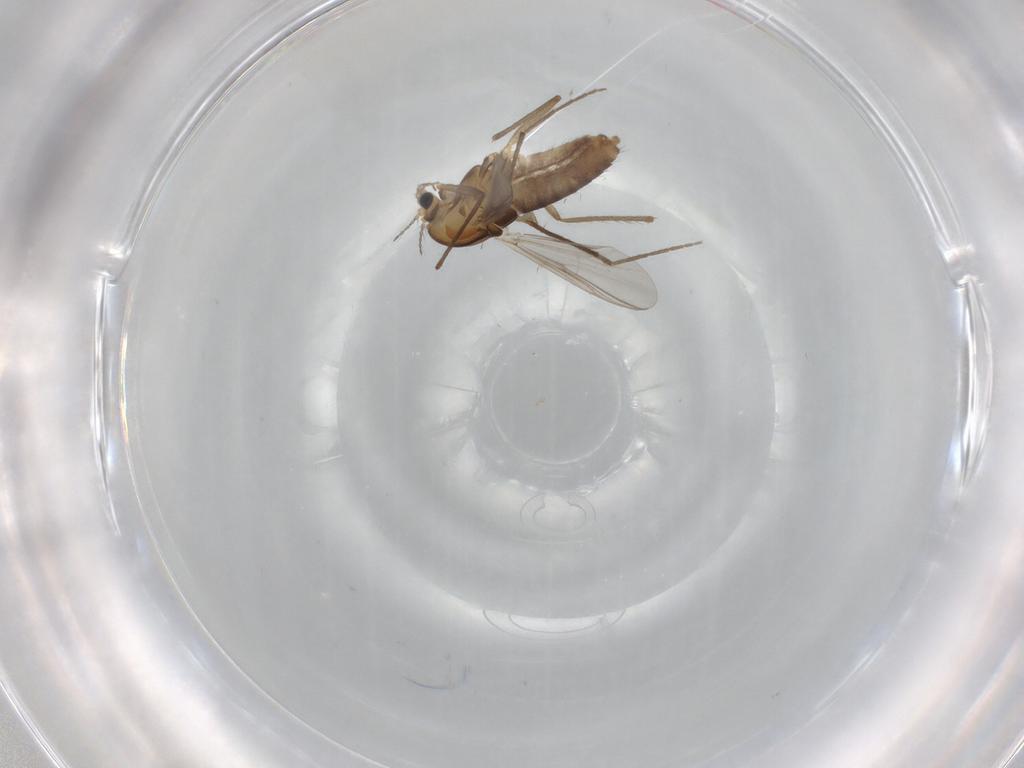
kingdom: Animalia
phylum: Arthropoda
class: Insecta
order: Diptera
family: Chironomidae
